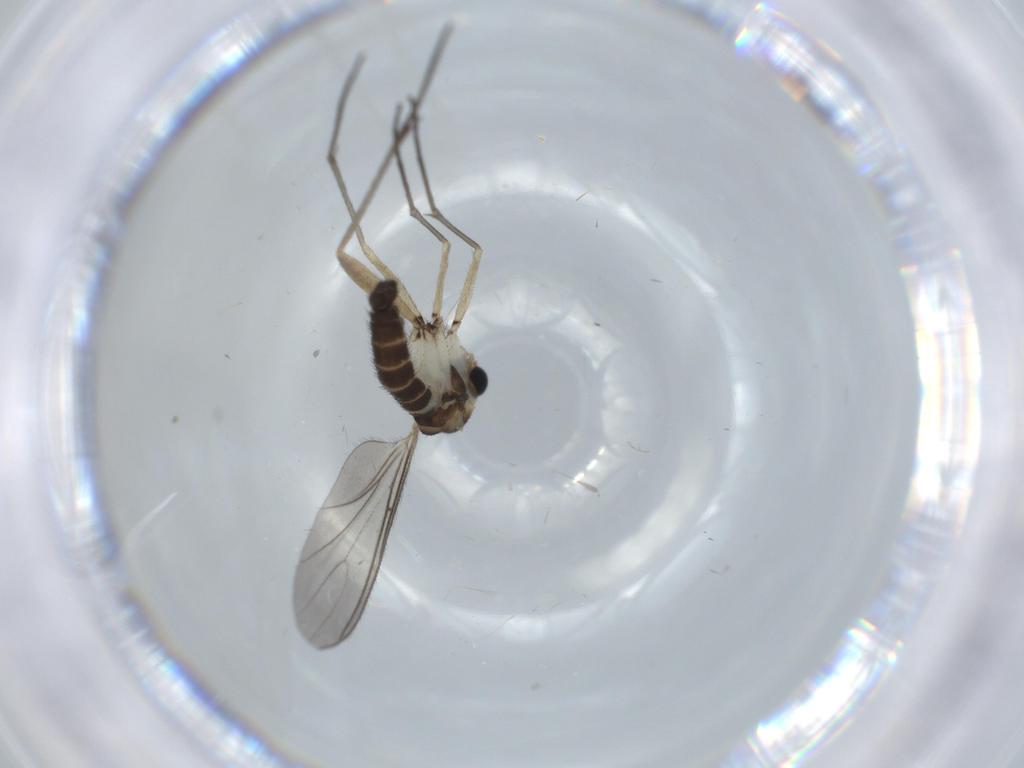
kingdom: Animalia
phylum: Arthropoda
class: Insecta
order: Diptera
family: Sciaridae
